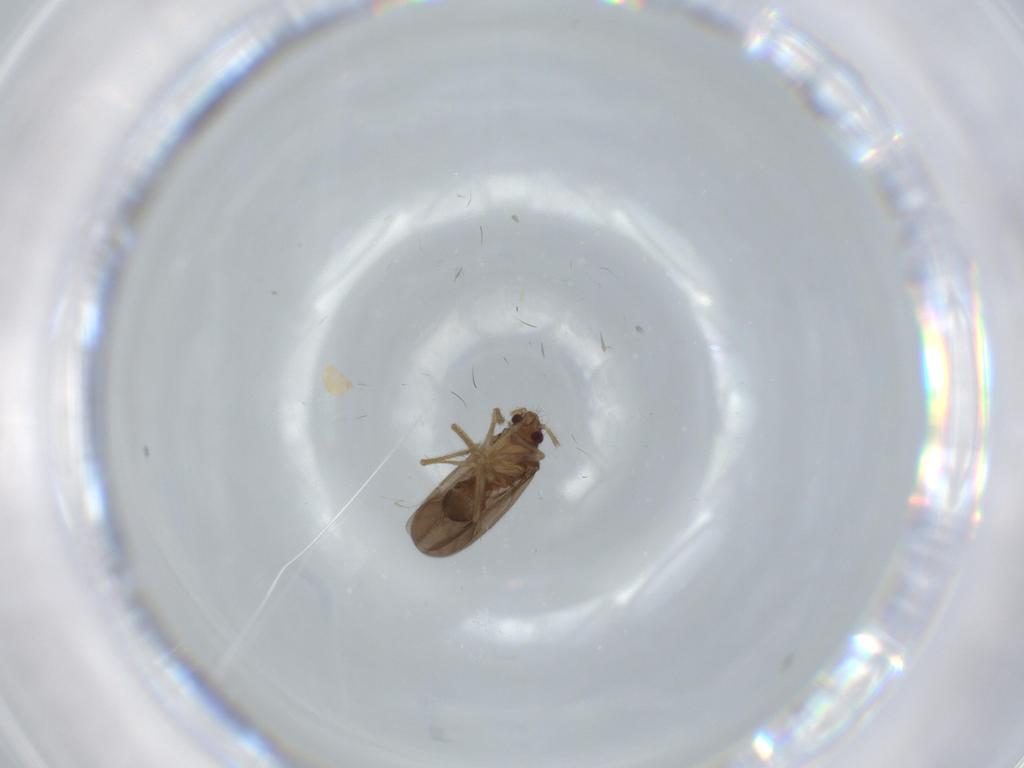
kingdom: Animalia
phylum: Arthropoda
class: Insecta
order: Hemiptera
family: Ceratocombidae
